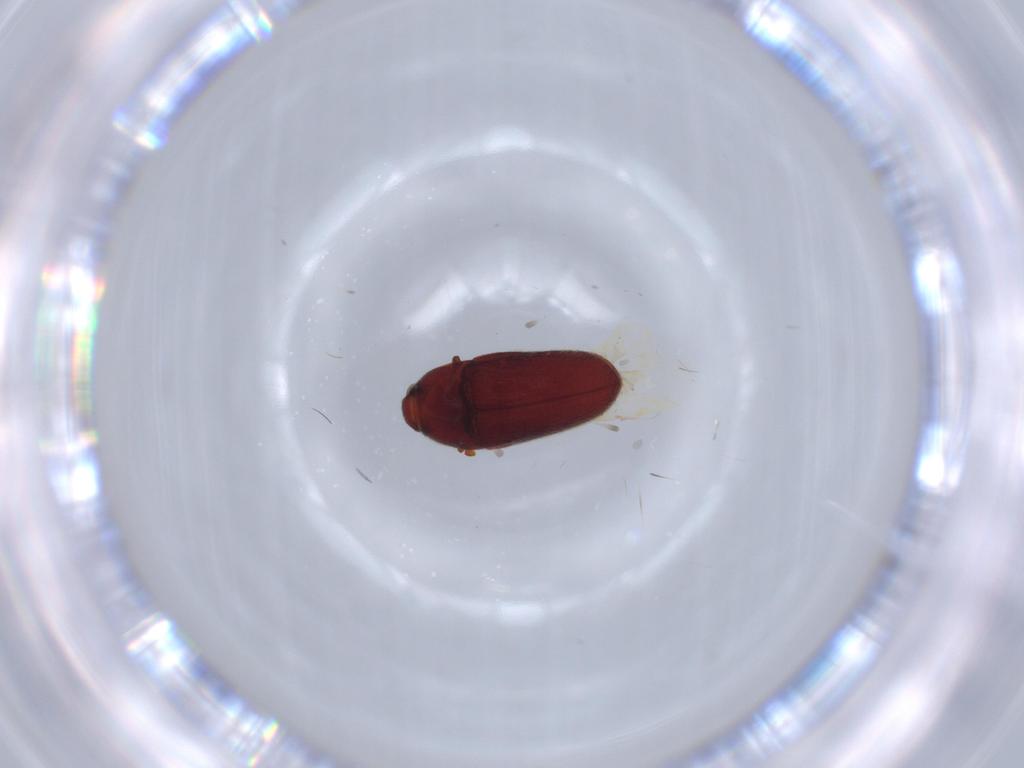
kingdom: Animalia
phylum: Arthropoda
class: Insecta
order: Coleoptera
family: Throscidae
